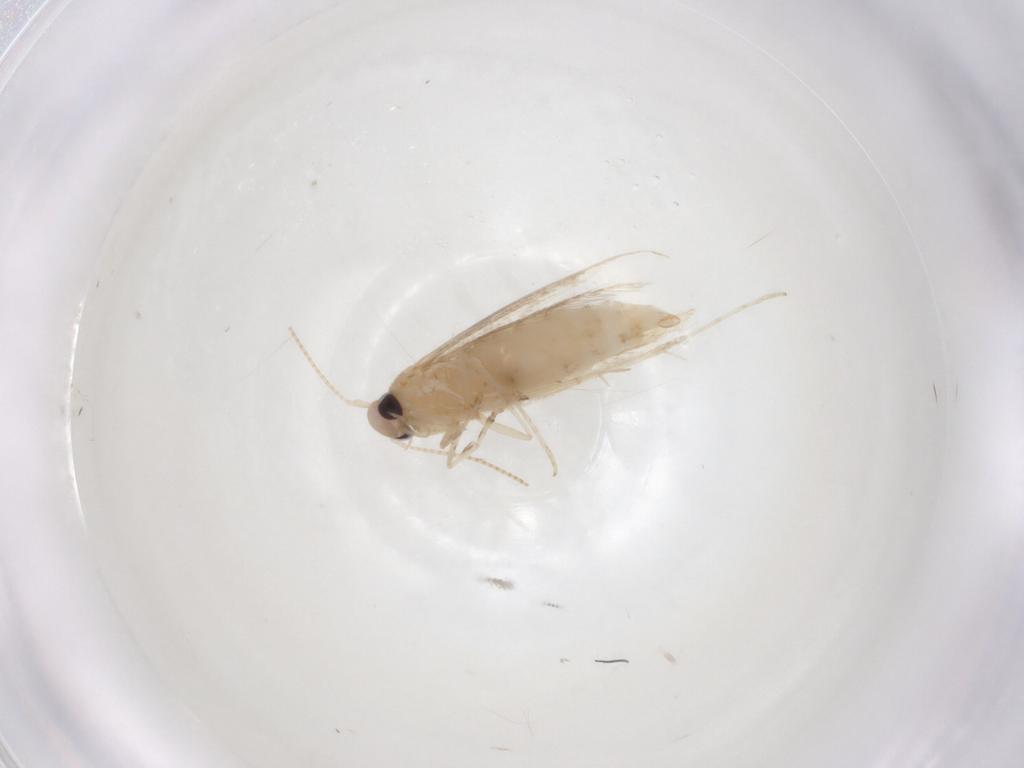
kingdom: Animalia
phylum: Arthropoda
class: Insecta
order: Lepidoptera
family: Gracillariidae
